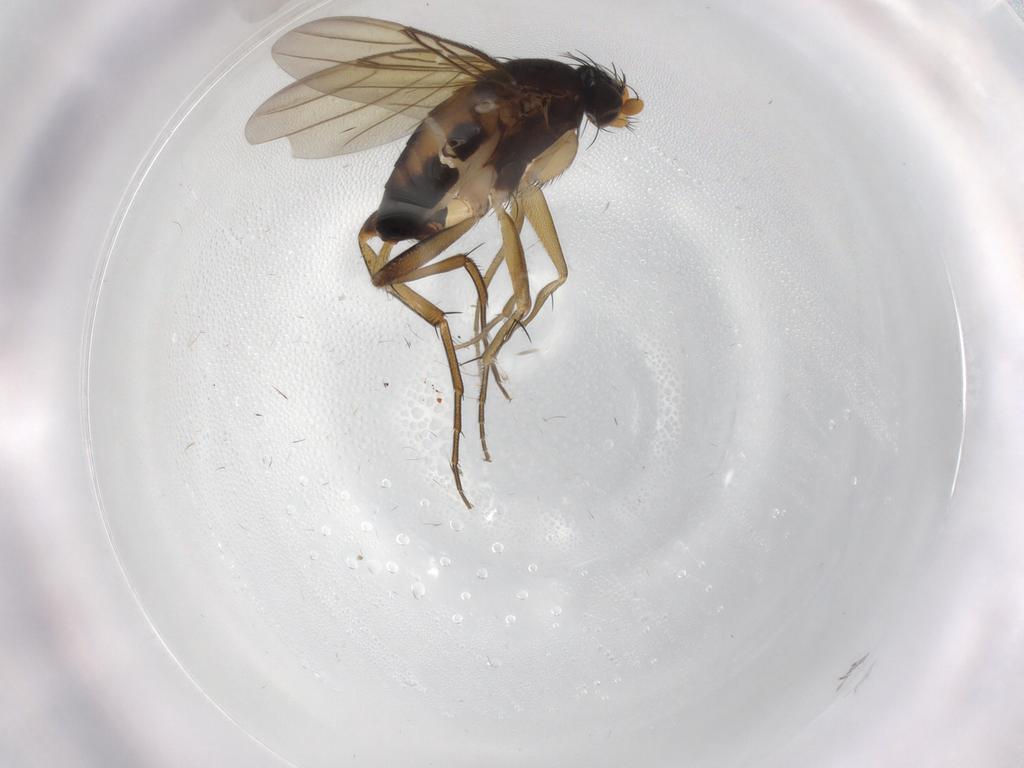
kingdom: Animalia
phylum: Arthropoda
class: Insecta
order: Diptera
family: Phoridae
